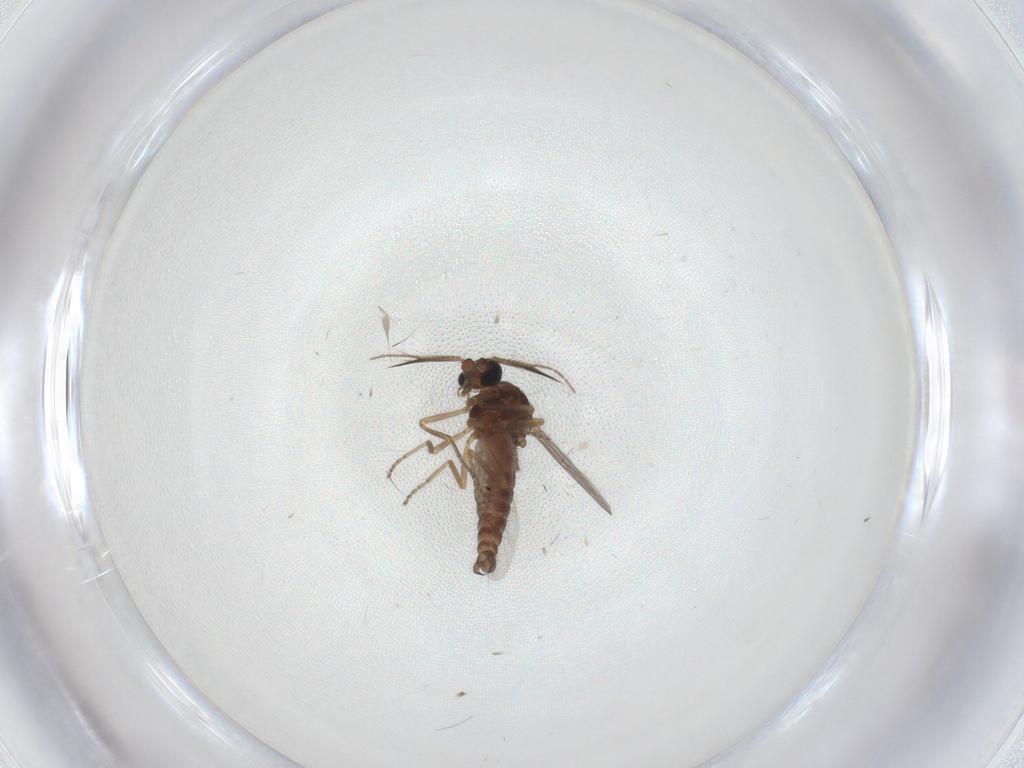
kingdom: Animalia
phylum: Arthropoda
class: Insecta
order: Diptera
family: Ceratopogonidae
